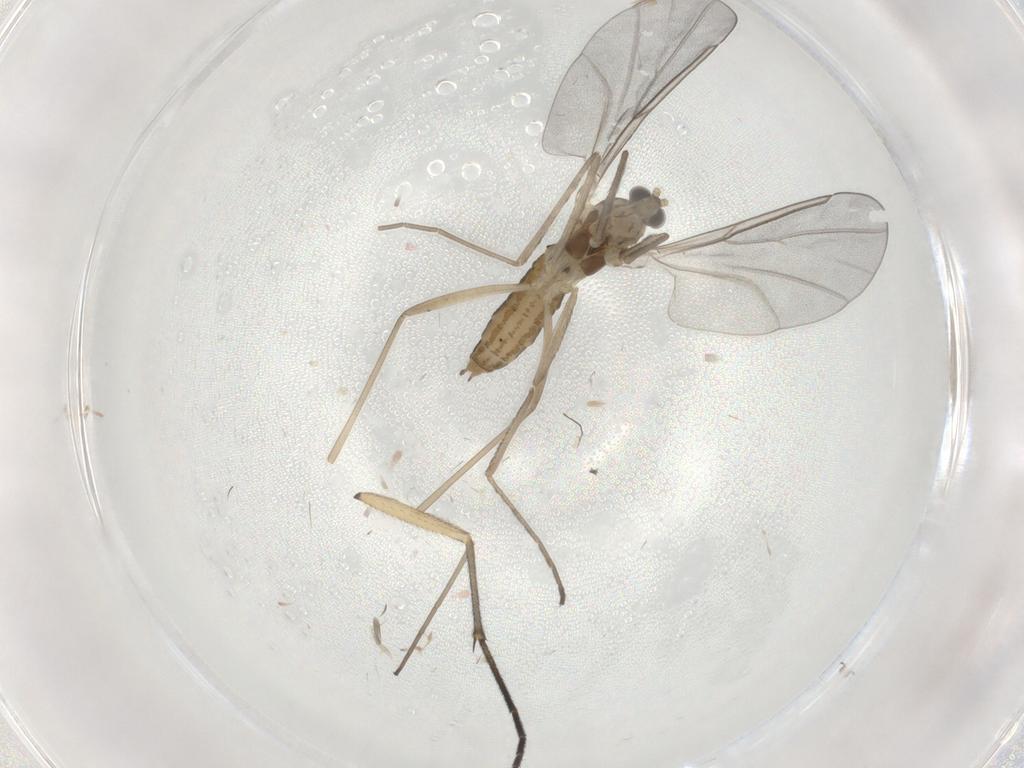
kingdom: Animalia
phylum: Arthropoda
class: Insecta
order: Diptera
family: Cecidomyiidae
